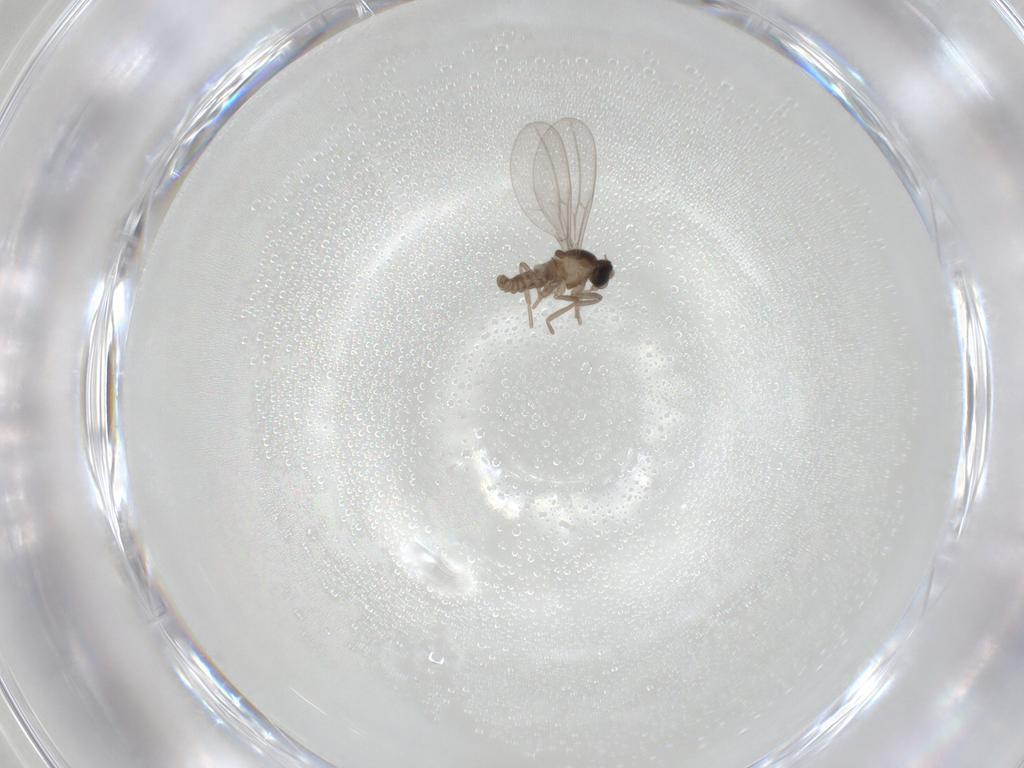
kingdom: Animalia
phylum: Arthropoda
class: Insecta
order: Diptera
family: Cecidomyiidae
